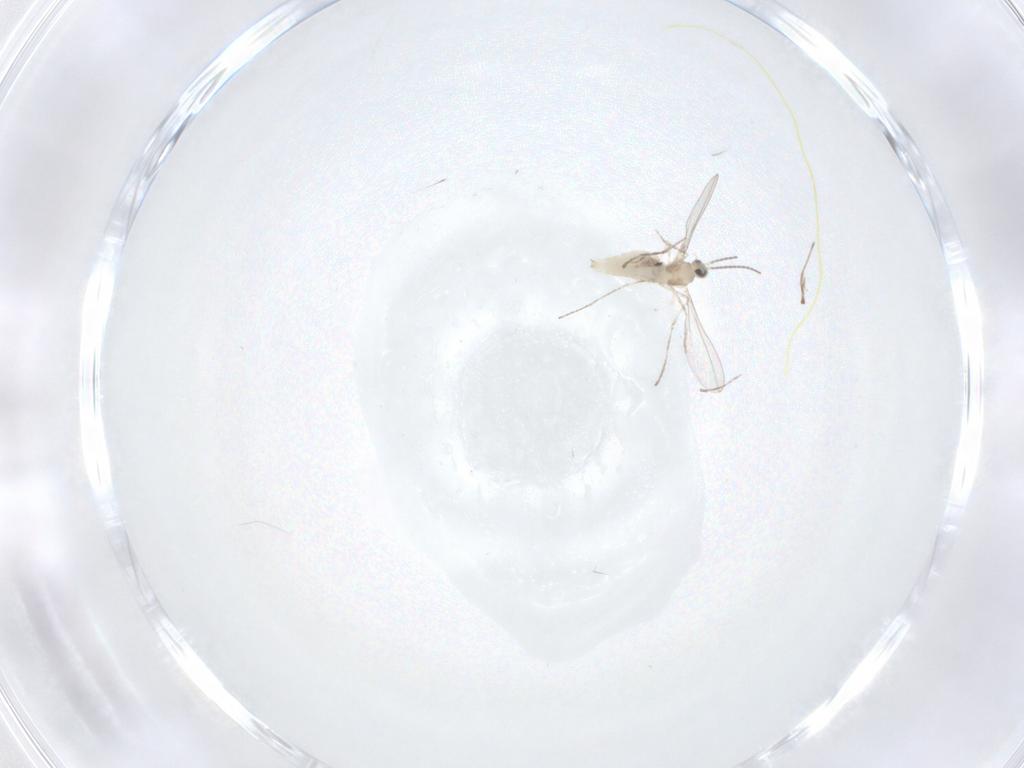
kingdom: Animalia
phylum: Arthropoda
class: Insecta
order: Diptera
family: Cecidomyiidae
